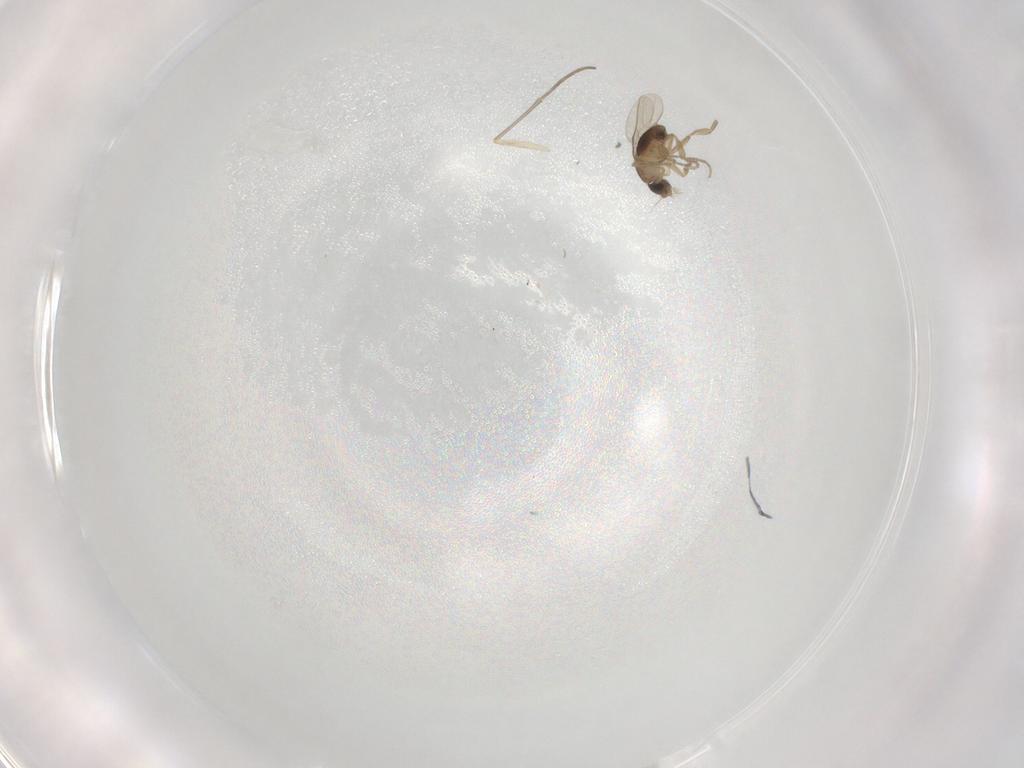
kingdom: Animalia
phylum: Arthropoda
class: Insecta
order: Diptera
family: Phoridae
